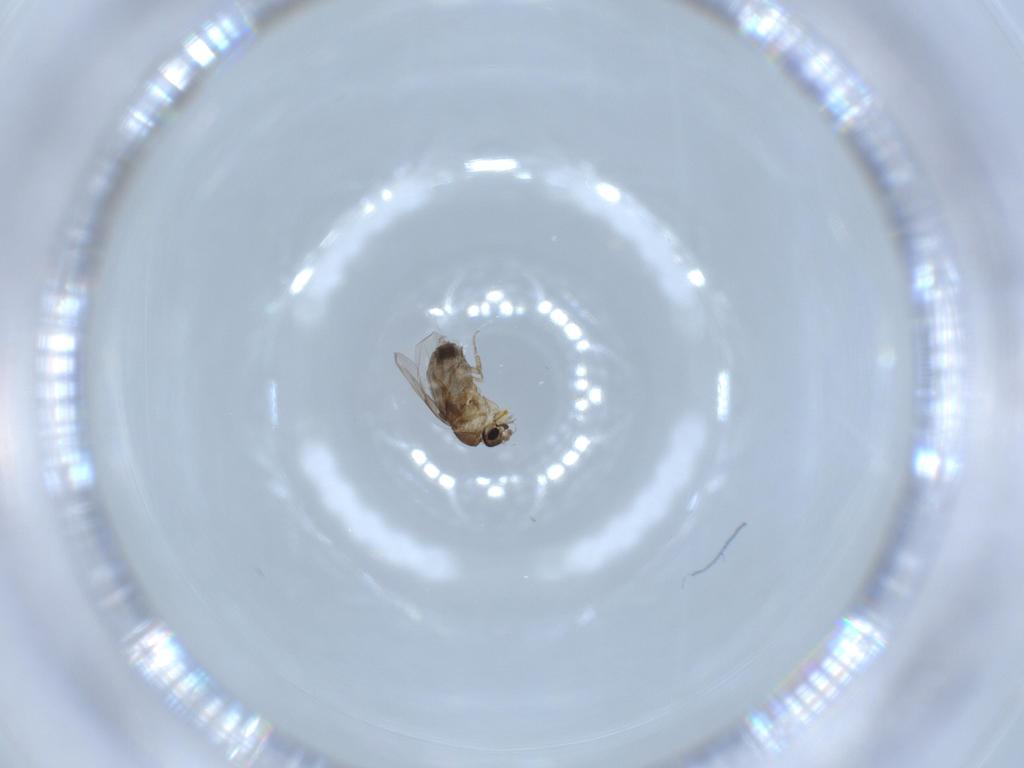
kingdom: Animalia
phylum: Arthropoda
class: Insecta
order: Diptera
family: Phoridae
